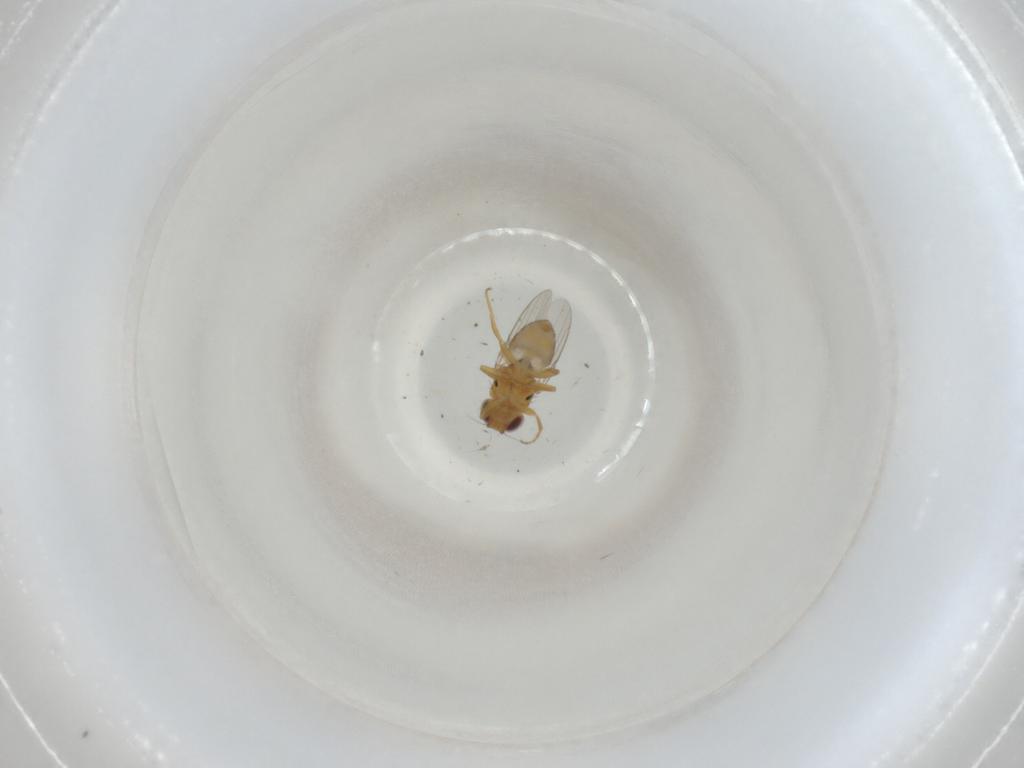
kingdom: Animalia
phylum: Arthropoda
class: Insecta
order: Diptera
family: Chloropidae
